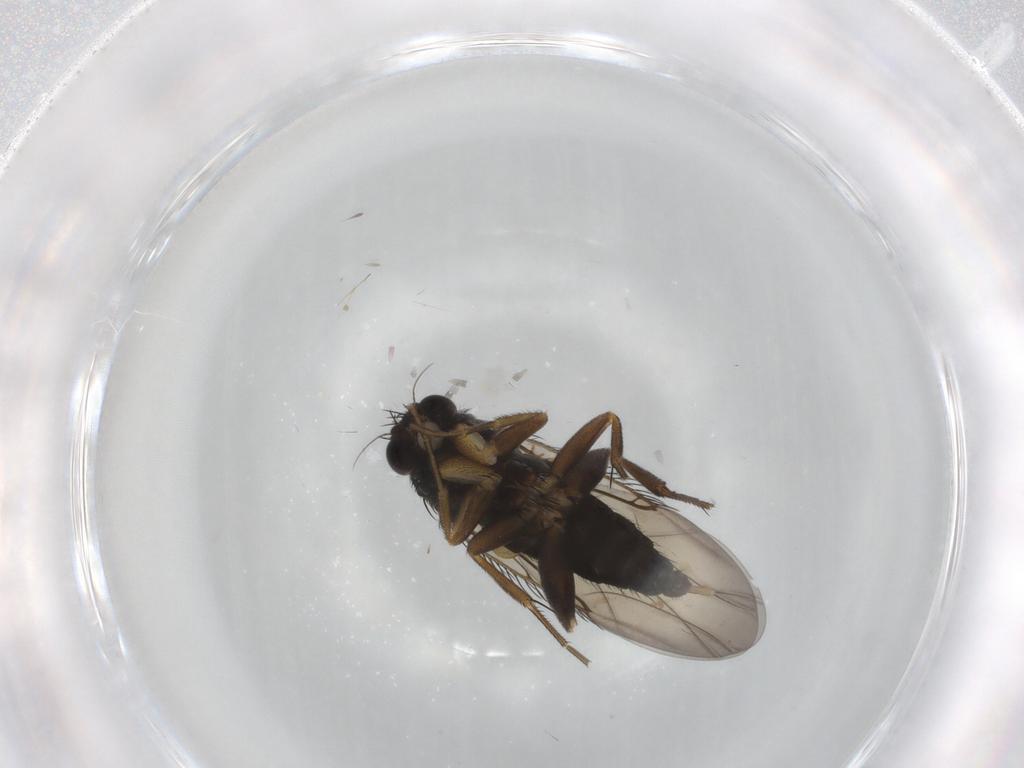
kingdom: Animalia
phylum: Arthropoda
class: Insecta
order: Diptera
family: Phoridae
